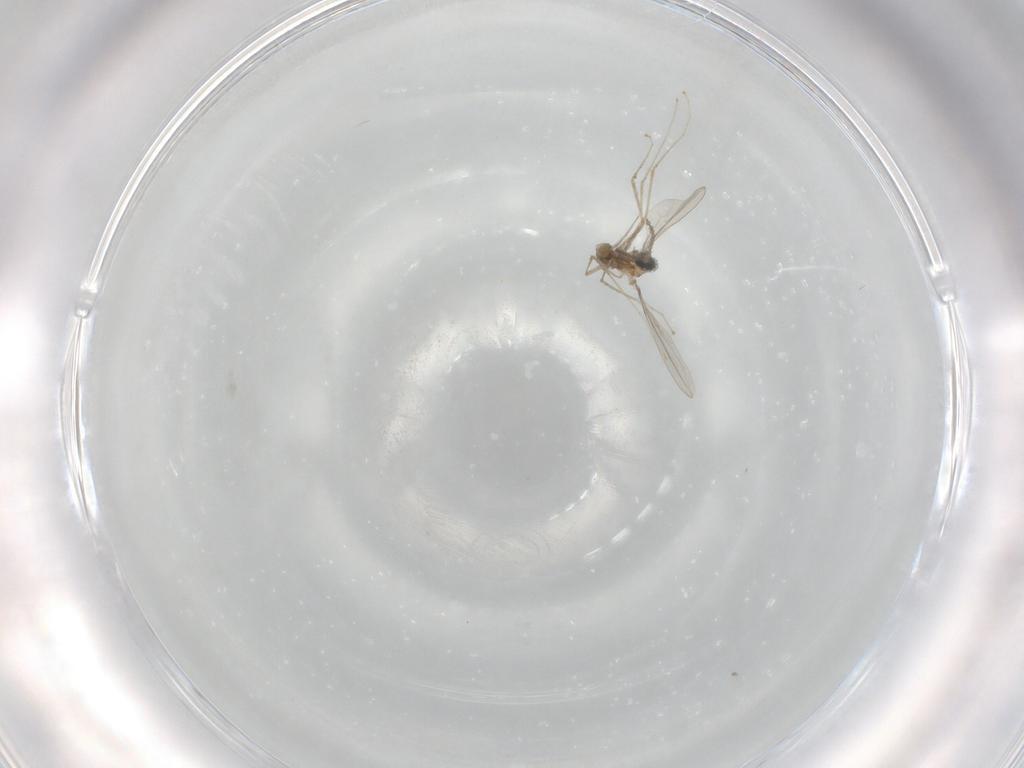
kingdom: Animalia
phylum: Arthropoda
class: Insecta
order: Diptera
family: Cecidomyiidae
